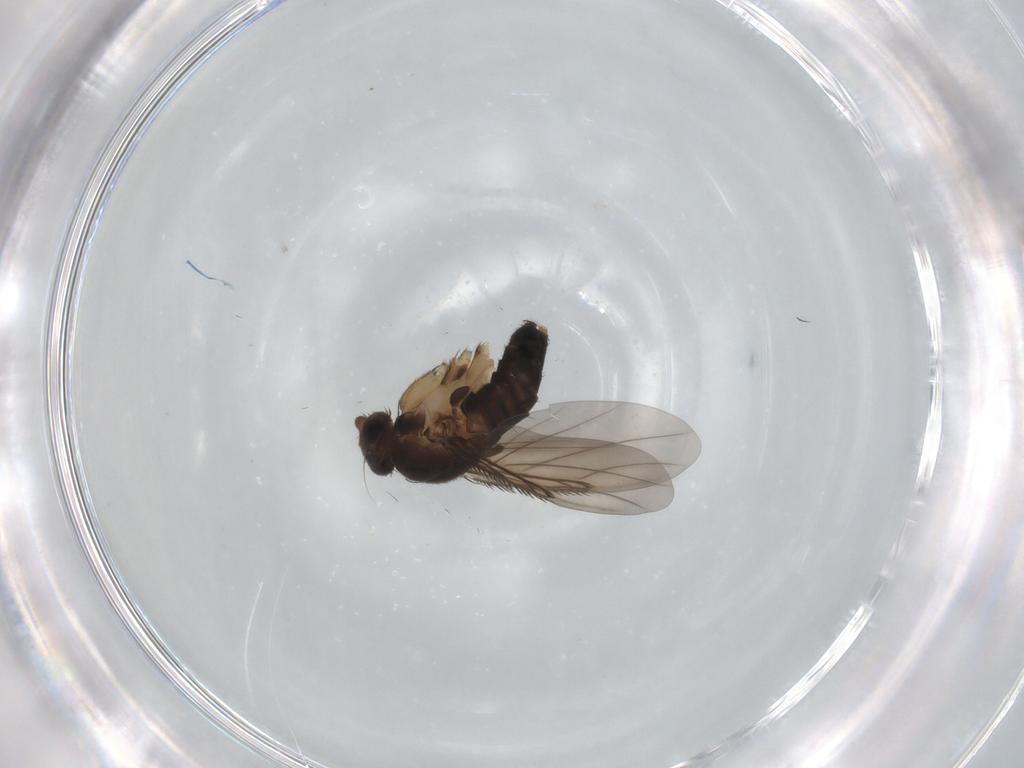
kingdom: Animalia
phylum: Arthropoda
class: Insecta
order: Diptera
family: Phoridae
